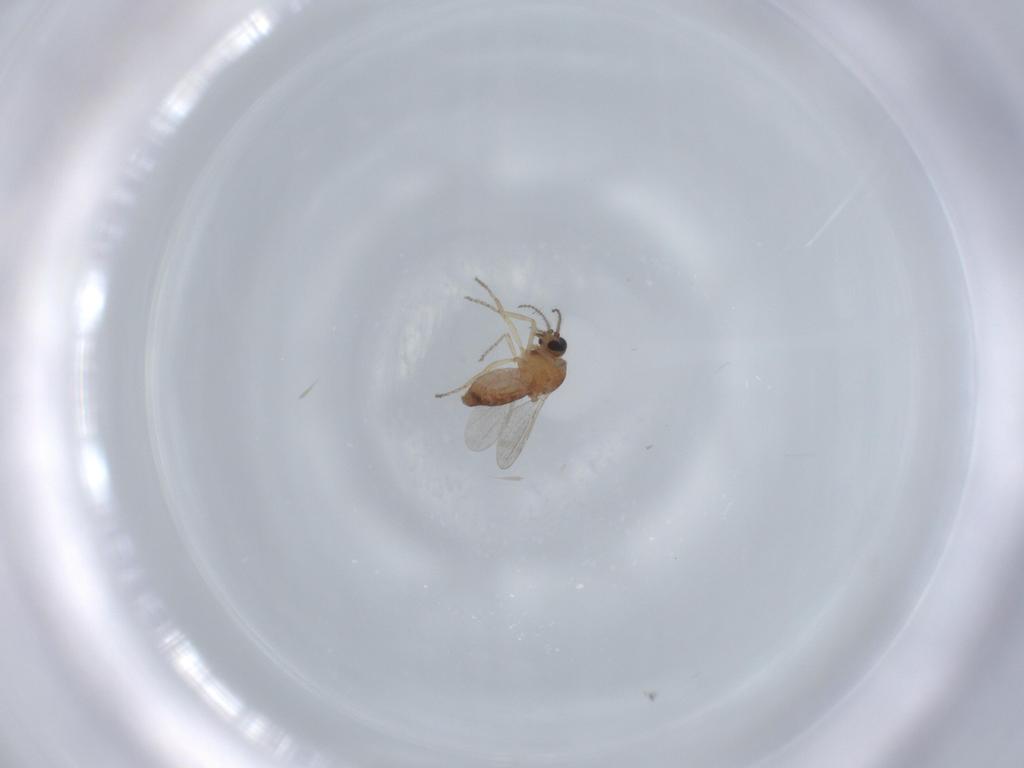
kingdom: Animalia
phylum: Arthropoda
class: Insecta
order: Diptera
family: Ceratopogonidae
